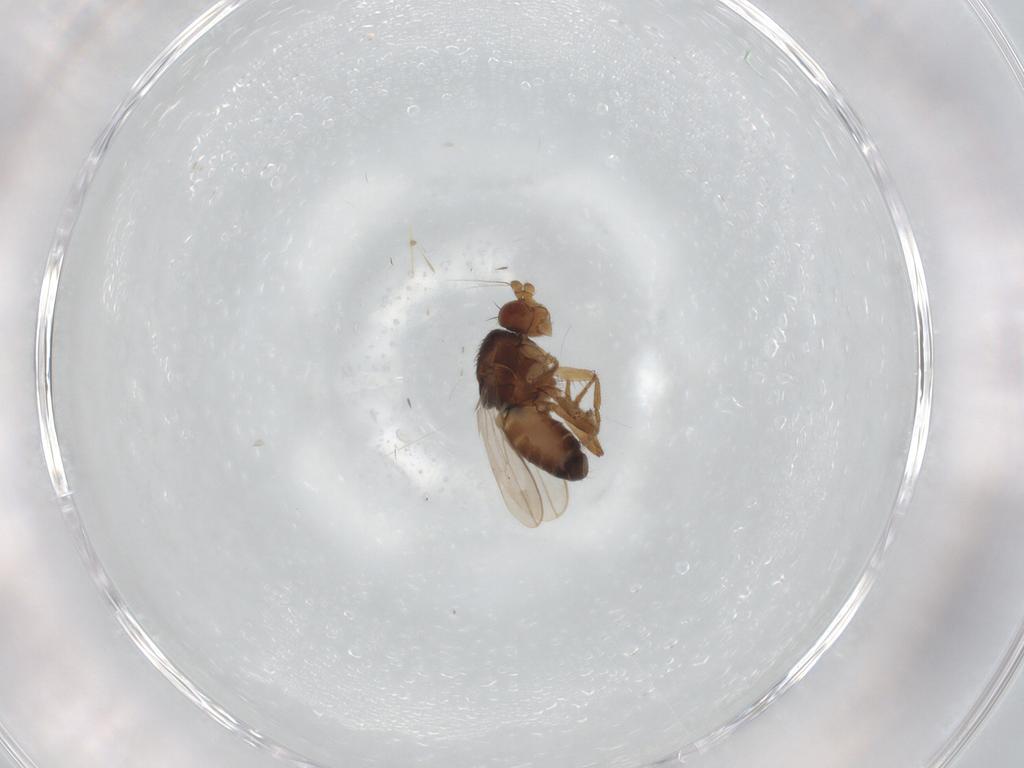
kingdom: Animalia
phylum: Arthropoda
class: Insecta
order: Diptera
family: Sphaeroceridae
